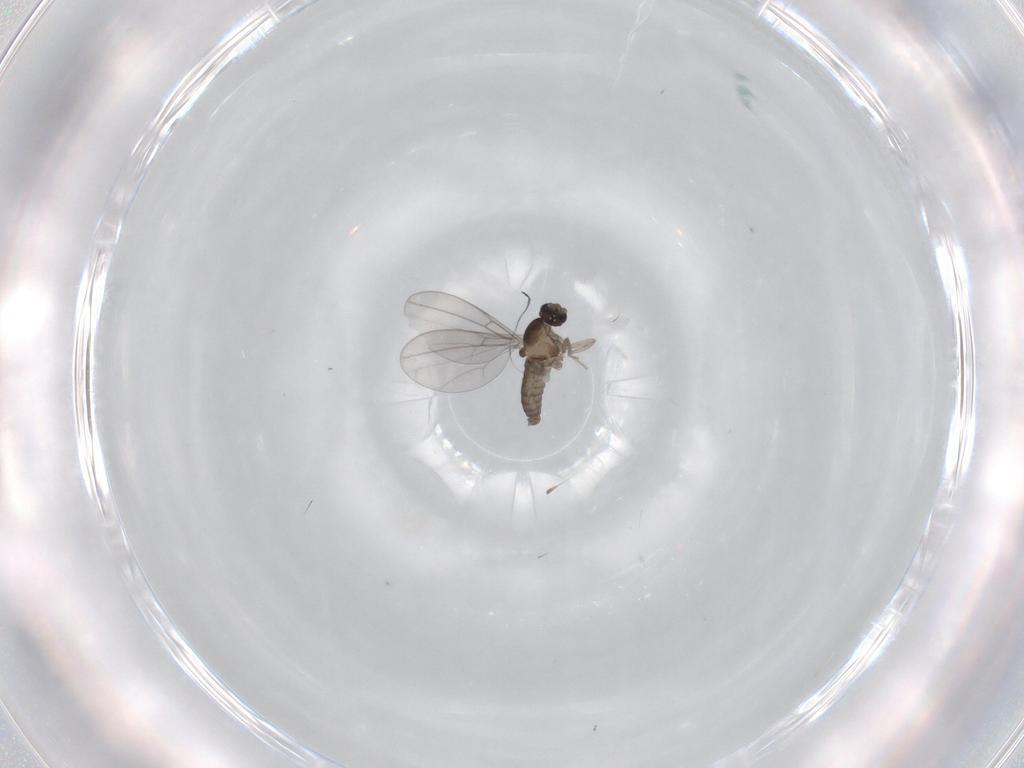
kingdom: Animalia
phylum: Arthropoda
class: Insecta
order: Diptera
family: Cecidomyiidae
